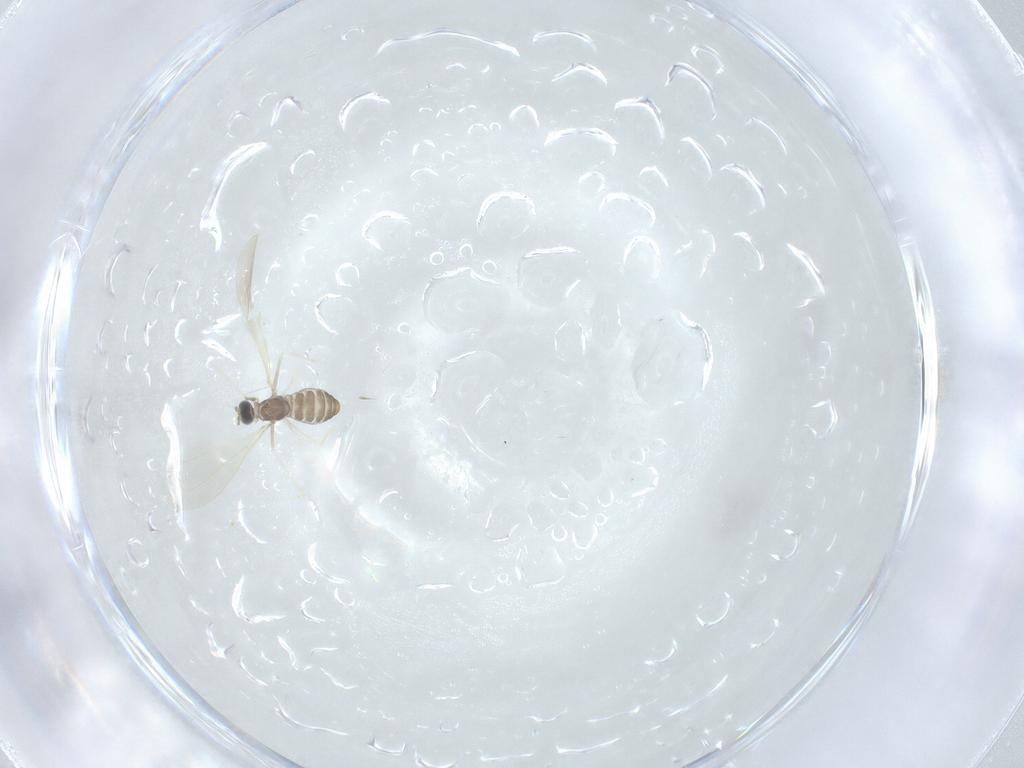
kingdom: Animalia
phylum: Arthropoda
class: Insecta
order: Diptera
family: Cecidomyiidae
